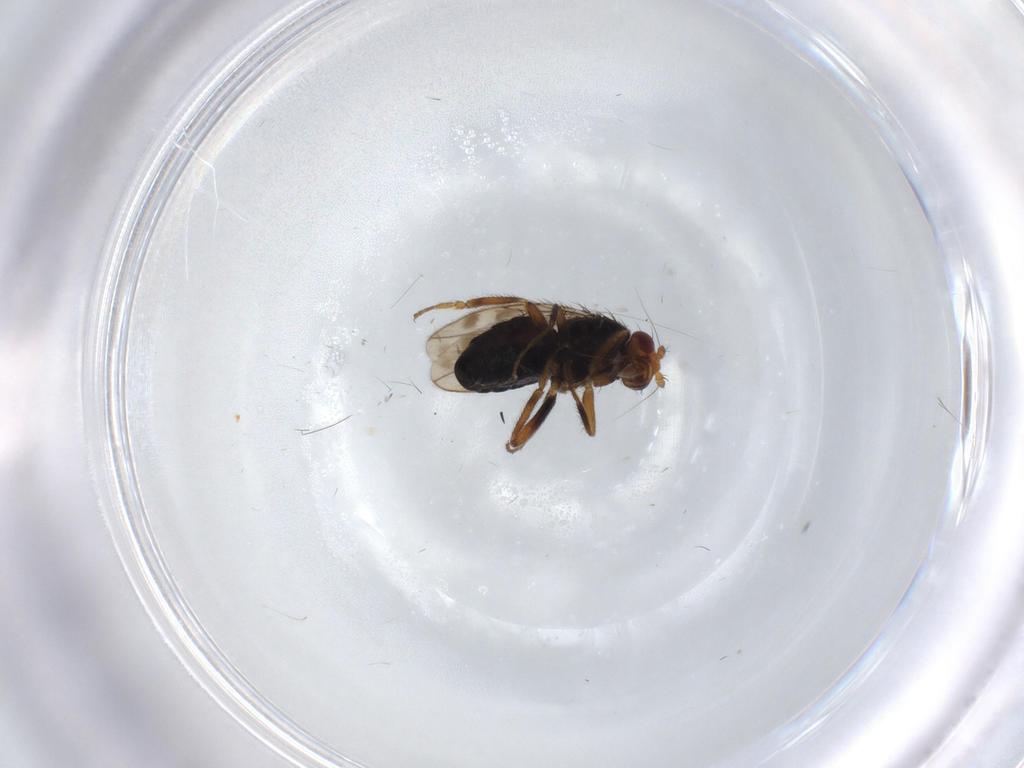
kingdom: Animalia
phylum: Arthropoda
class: Insecta
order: Diptera
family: Sphaeroceridae
